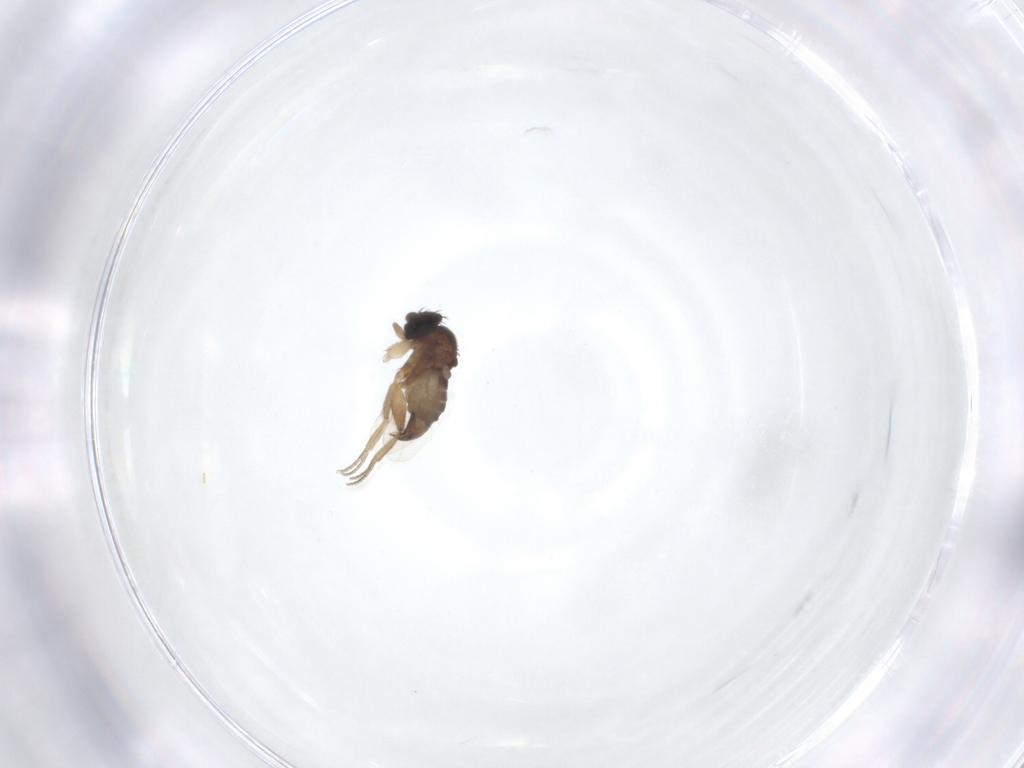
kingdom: Animalia
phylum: Arthropoda
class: Insecta
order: Diptera
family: Phoridae
